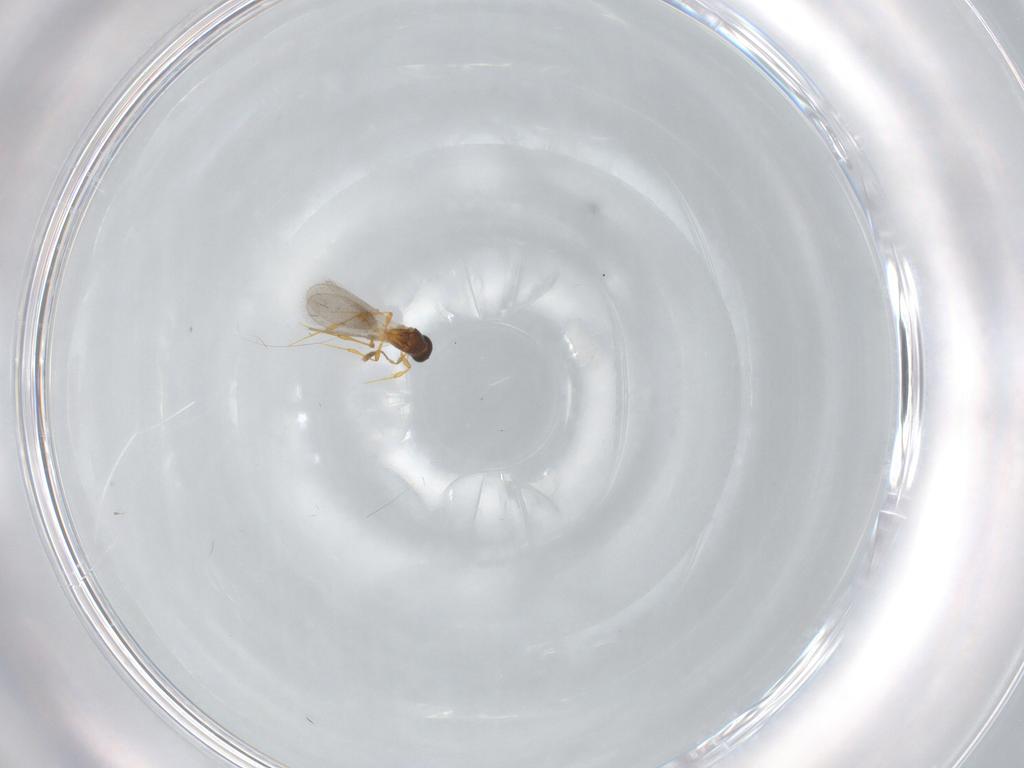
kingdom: Animalia
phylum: Arthropoda
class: Insecta
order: Hymenoptera
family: Platygastridae
